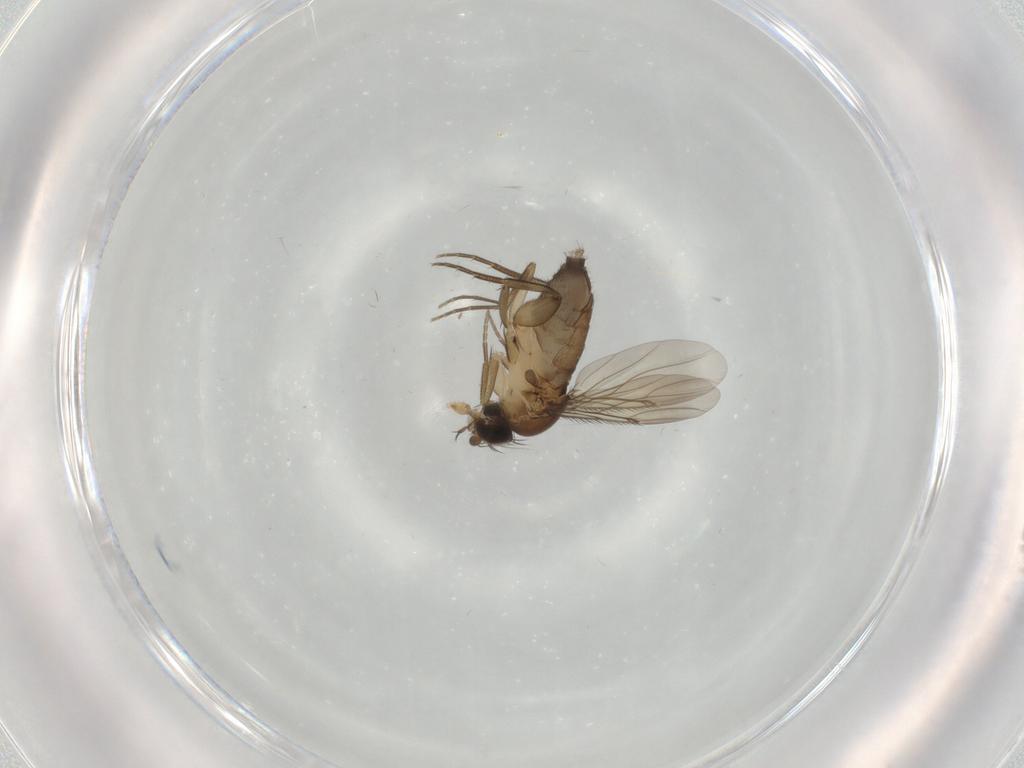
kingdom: Animalia
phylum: Arthropoda
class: Insecta
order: Diptera
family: Phoridae
